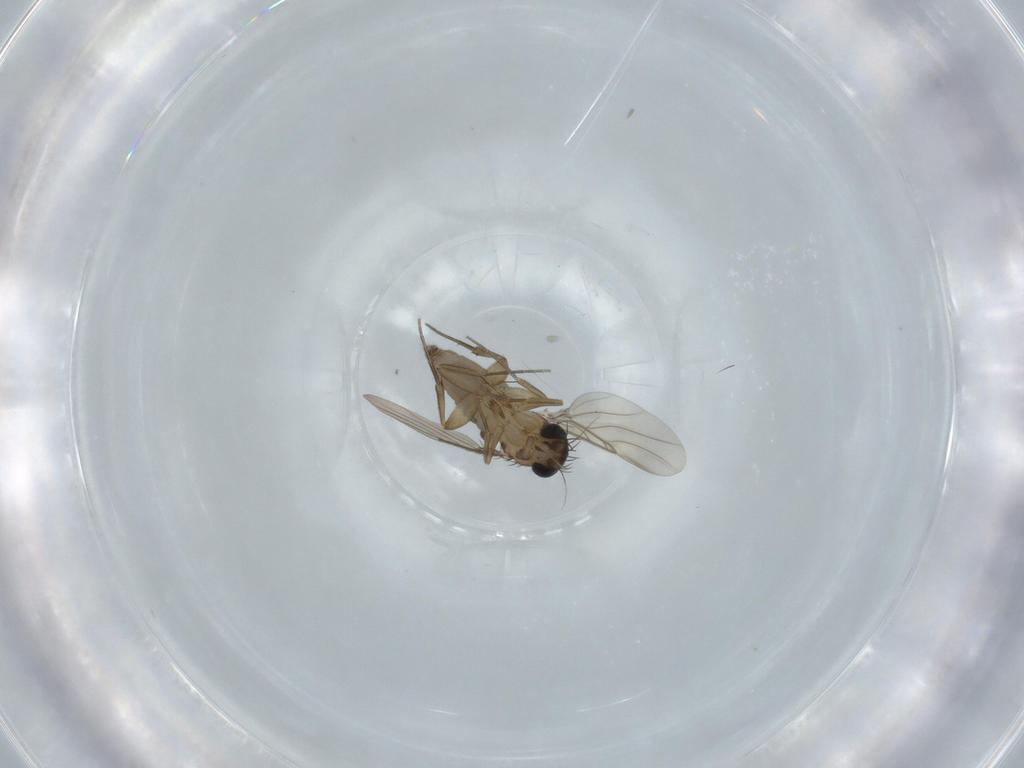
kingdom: Animalia
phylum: Arthropoda
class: Insecta
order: Diptera
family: Phoridae
